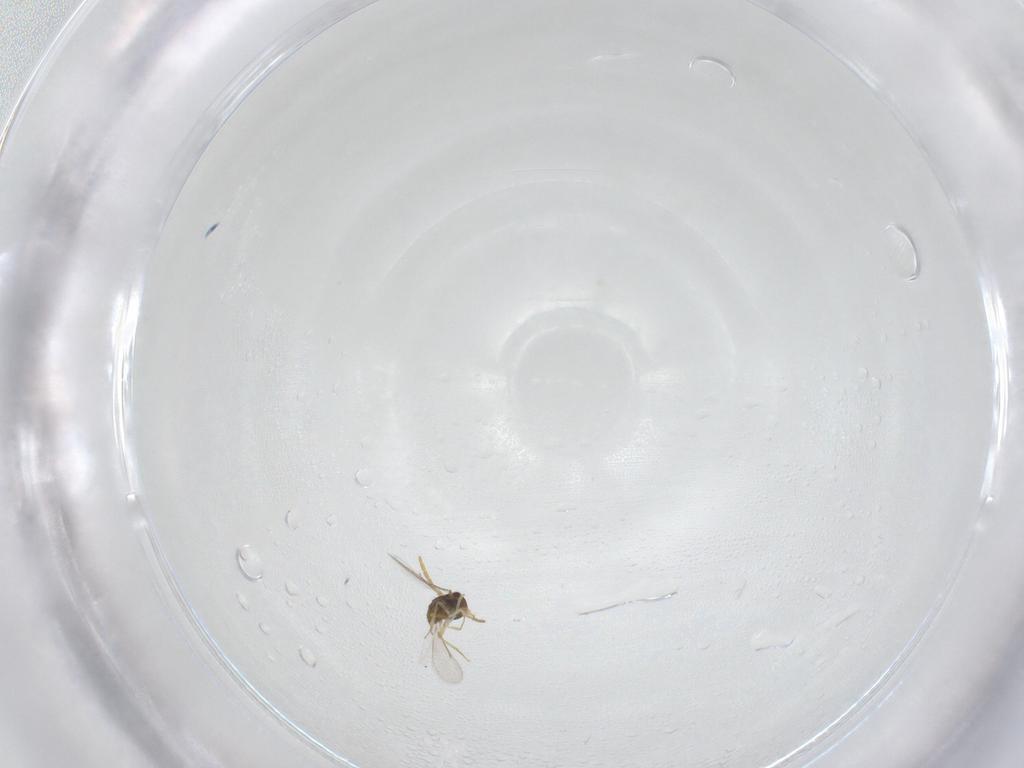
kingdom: Animalia
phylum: Arthropoda
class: Insecta
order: Hymenoptera
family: Aphelinidae
